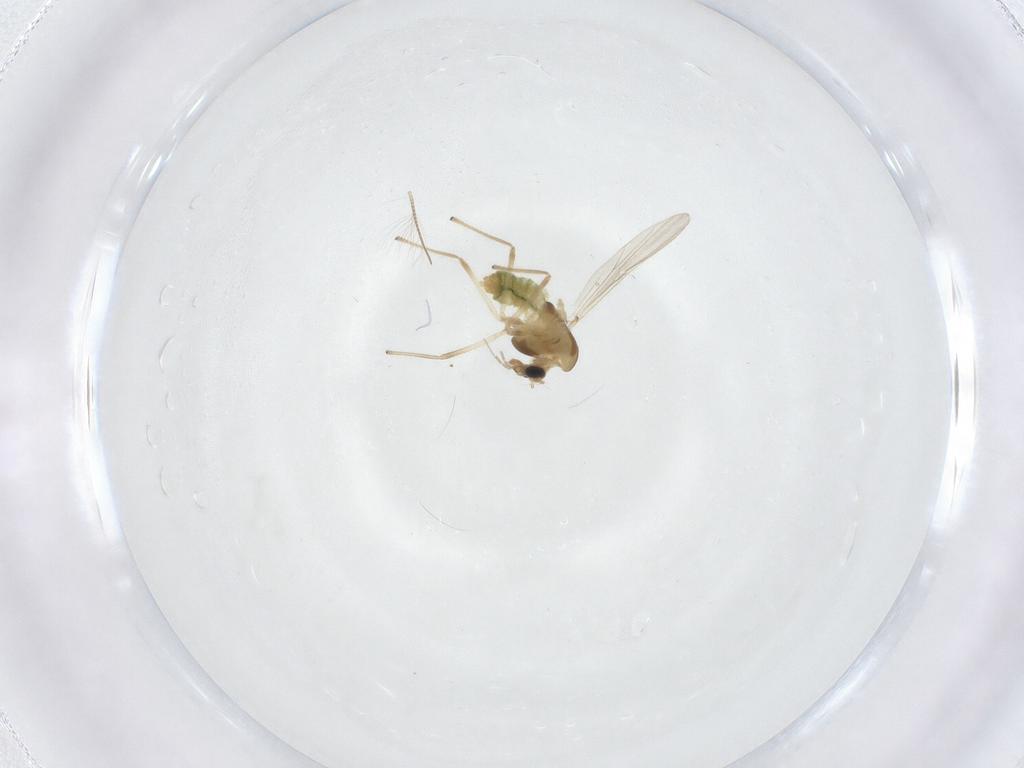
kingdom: Animalia
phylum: Arthropoda
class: Insecta
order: Diptera
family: Chironomidae
